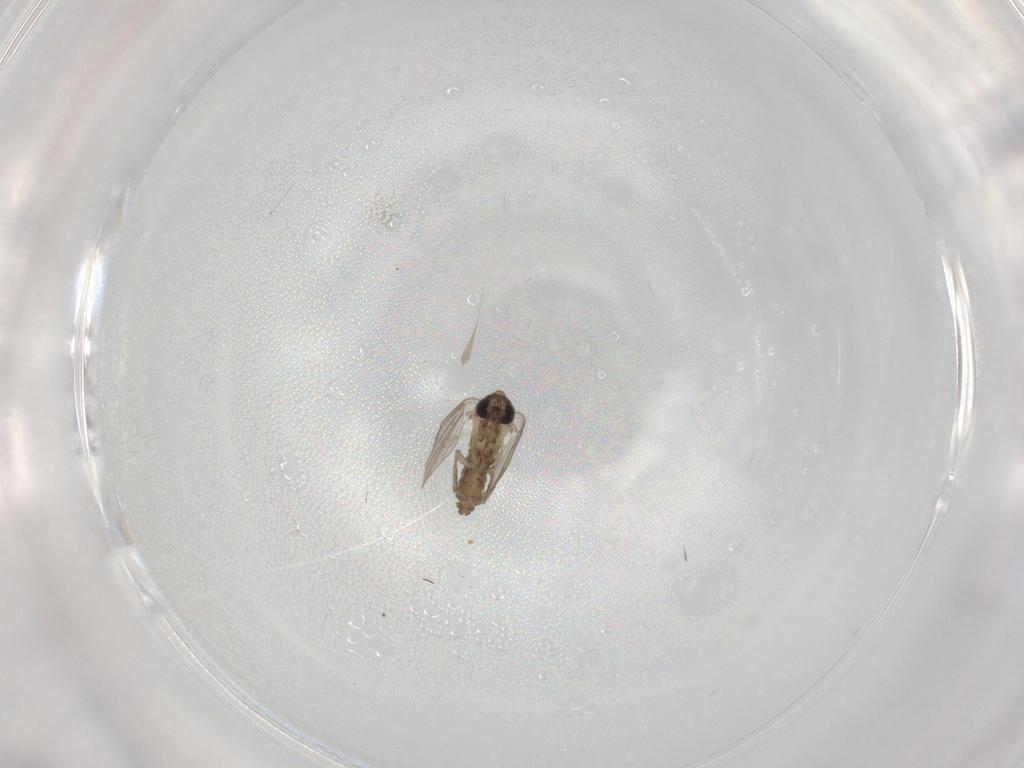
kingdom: Animalia
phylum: Arthropoda
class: Insecta
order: Diptera
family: Psychodidae
